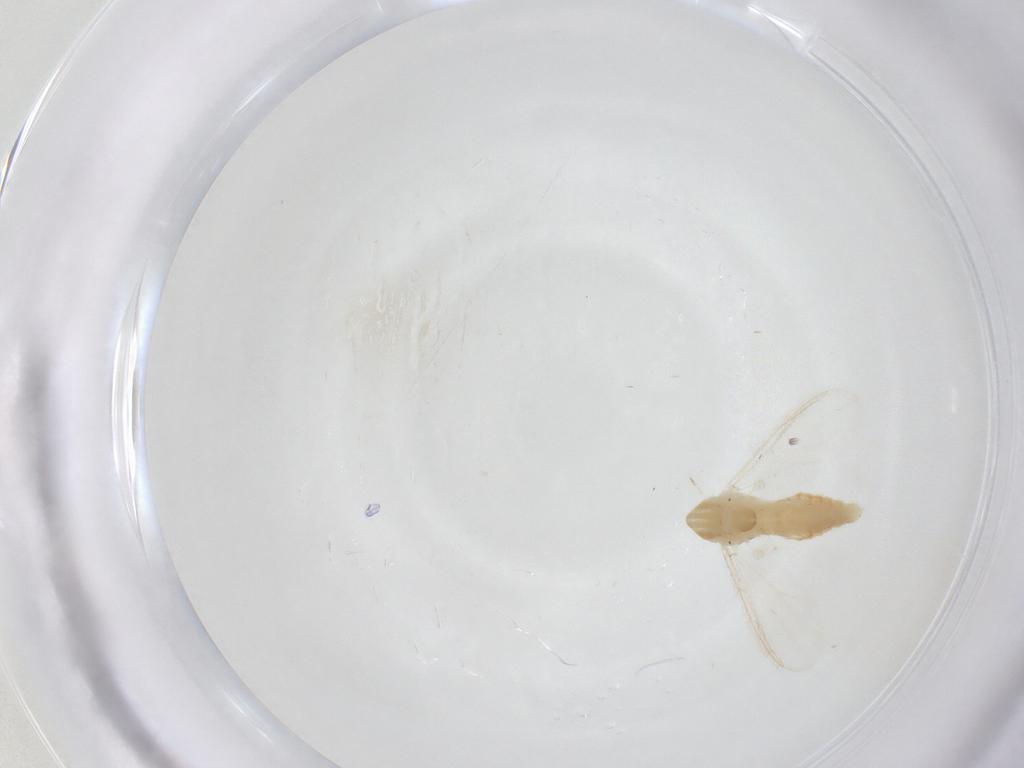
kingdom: Animalia
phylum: Arthropoda
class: Insecta
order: Diptera
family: Chironomidae
